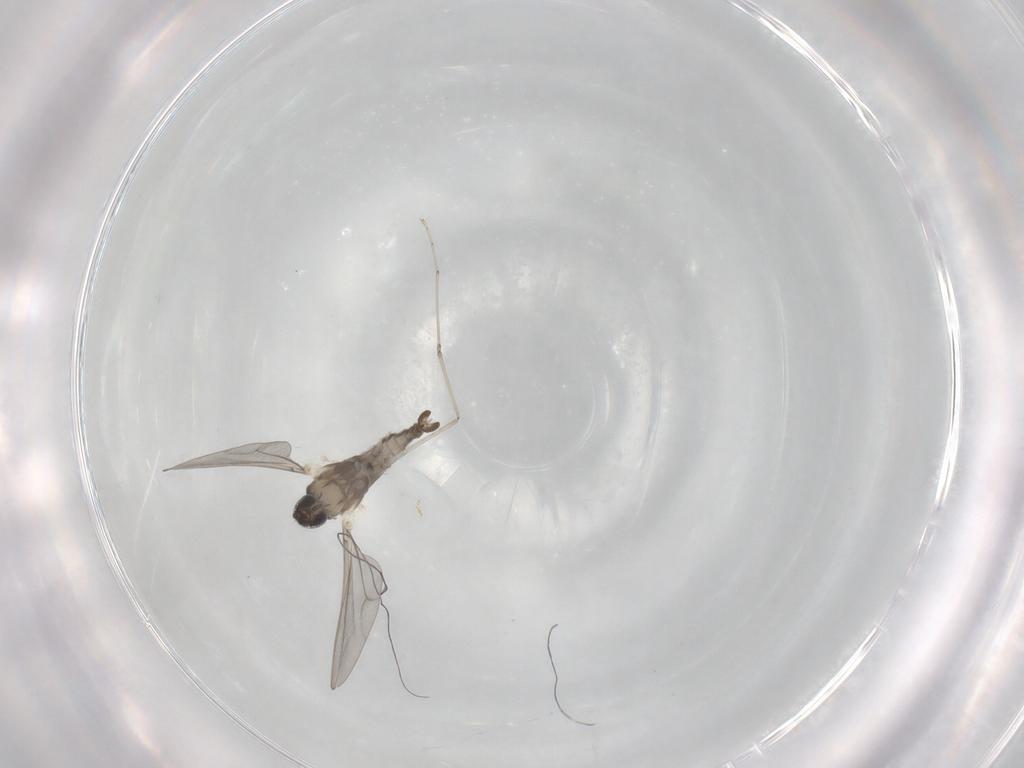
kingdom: Animalia
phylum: Arthropoda
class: Insecta
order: Diptera
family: Cecidomyiidae
